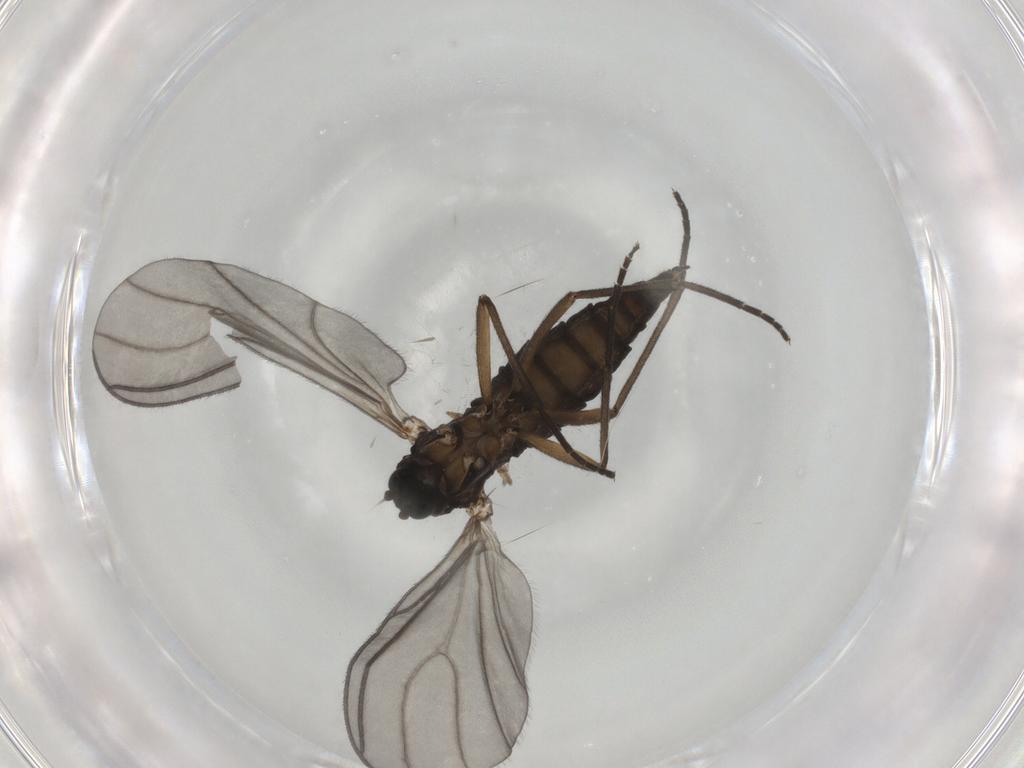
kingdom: Animalia
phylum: Arthropoda
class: Insecta
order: Diptera
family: Sciaridae
